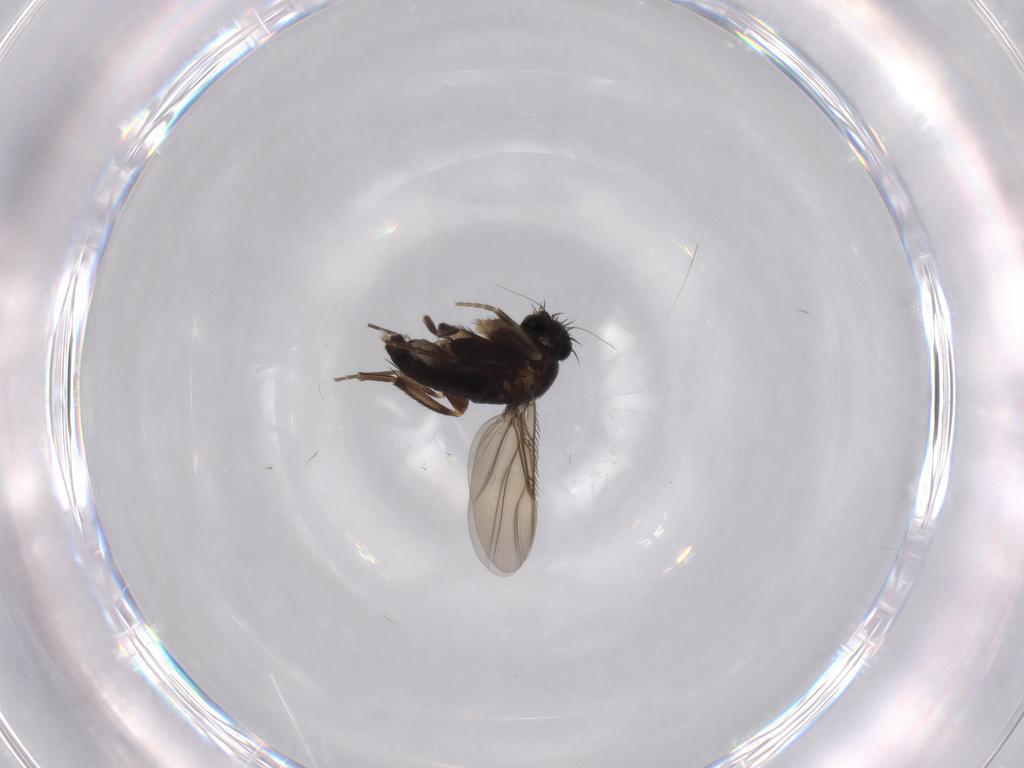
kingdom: Animalia
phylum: Arthropoda
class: Insecta
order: Diptera
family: Phoridae
